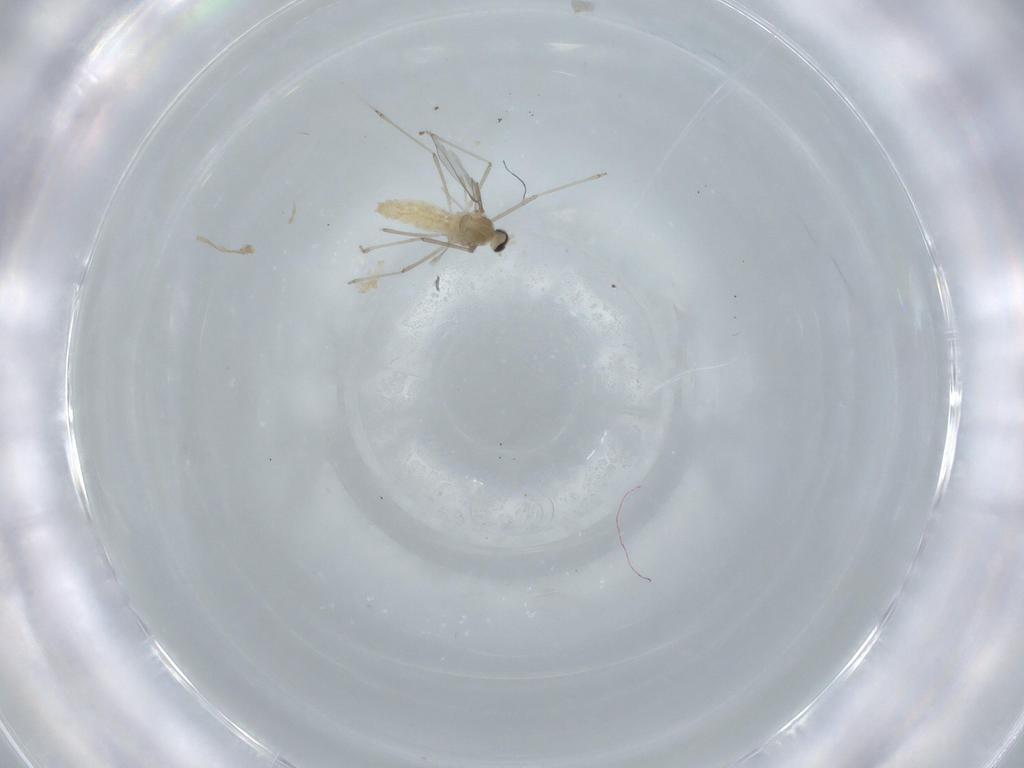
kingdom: Animalia
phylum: Arthropoda
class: Insecta
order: Diptera
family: Cecidomyiidae
